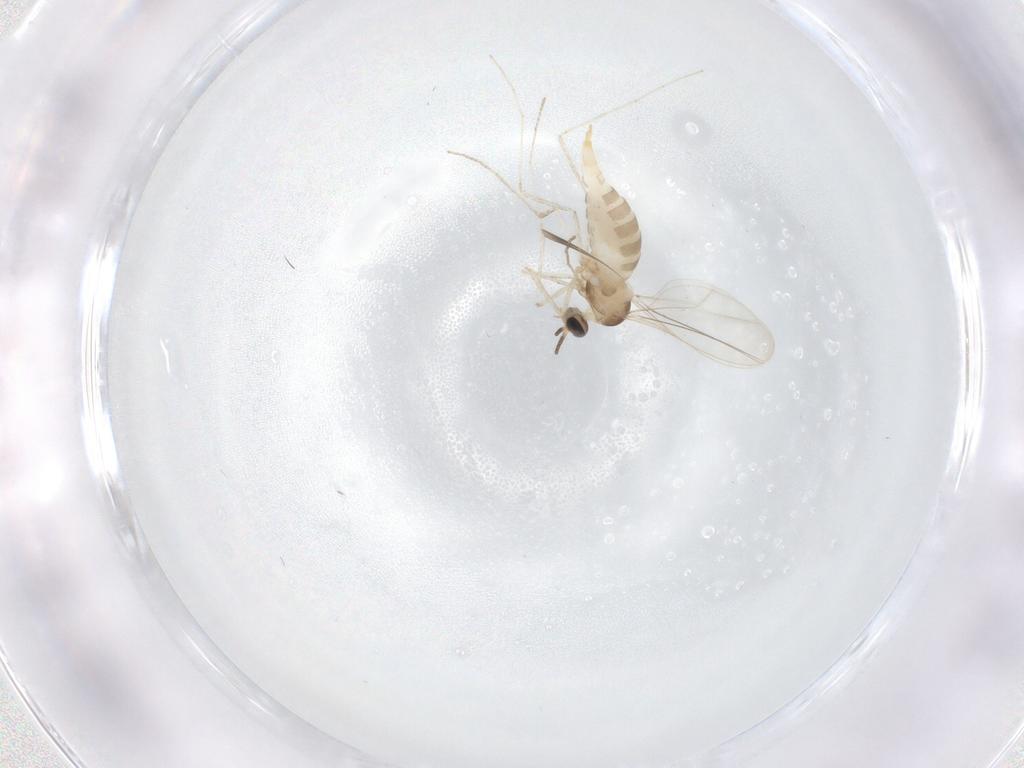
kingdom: Animalia
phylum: Arthropoda
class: Insecta
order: Diptera
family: Cecidomyiidae
